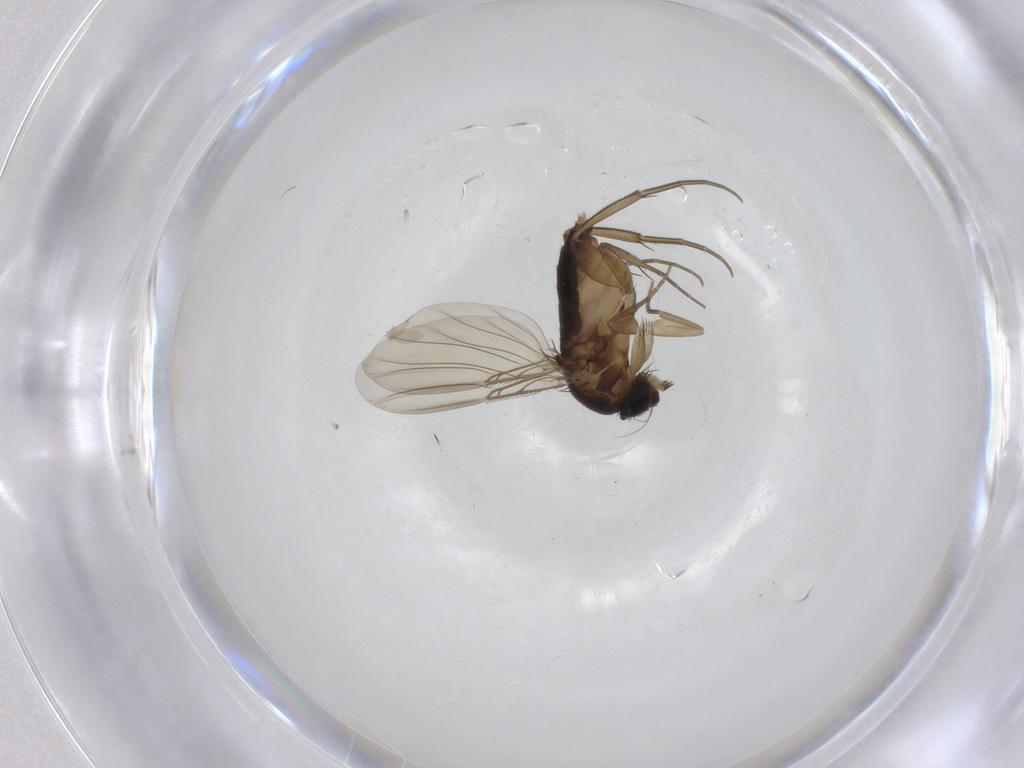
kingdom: Animalia
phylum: Arthropoda
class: Insecta
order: Diptera
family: Phoridae
